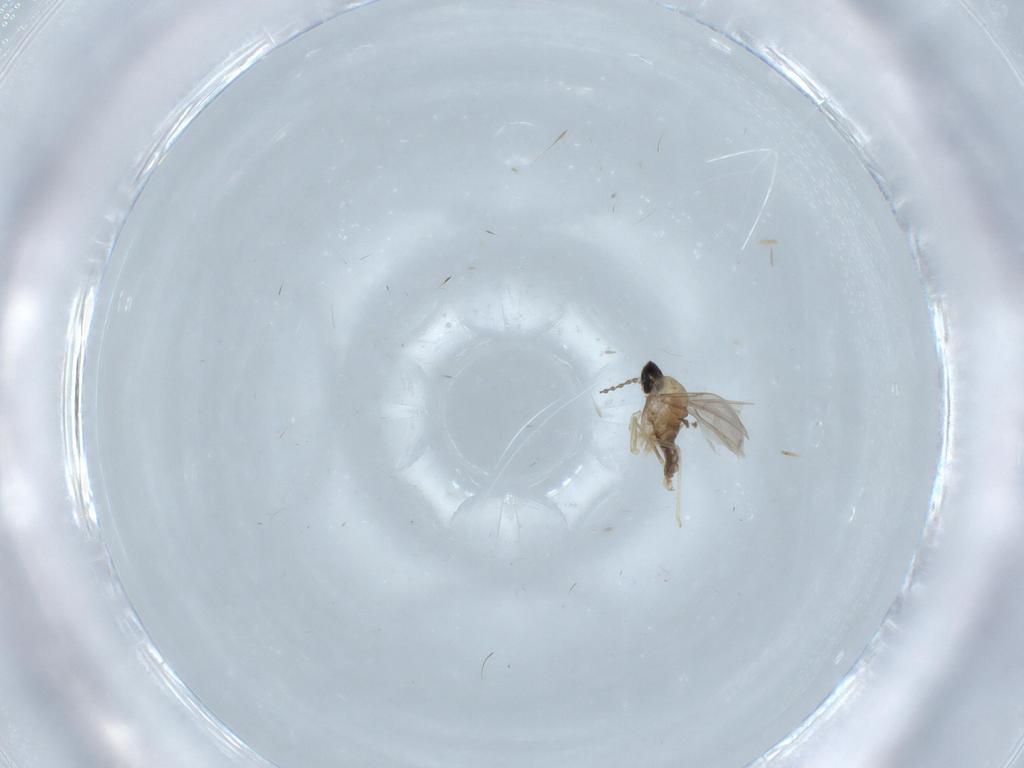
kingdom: Animalia
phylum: Arthropoda
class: Insecta
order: Diptera
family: Cecidomyiidae
